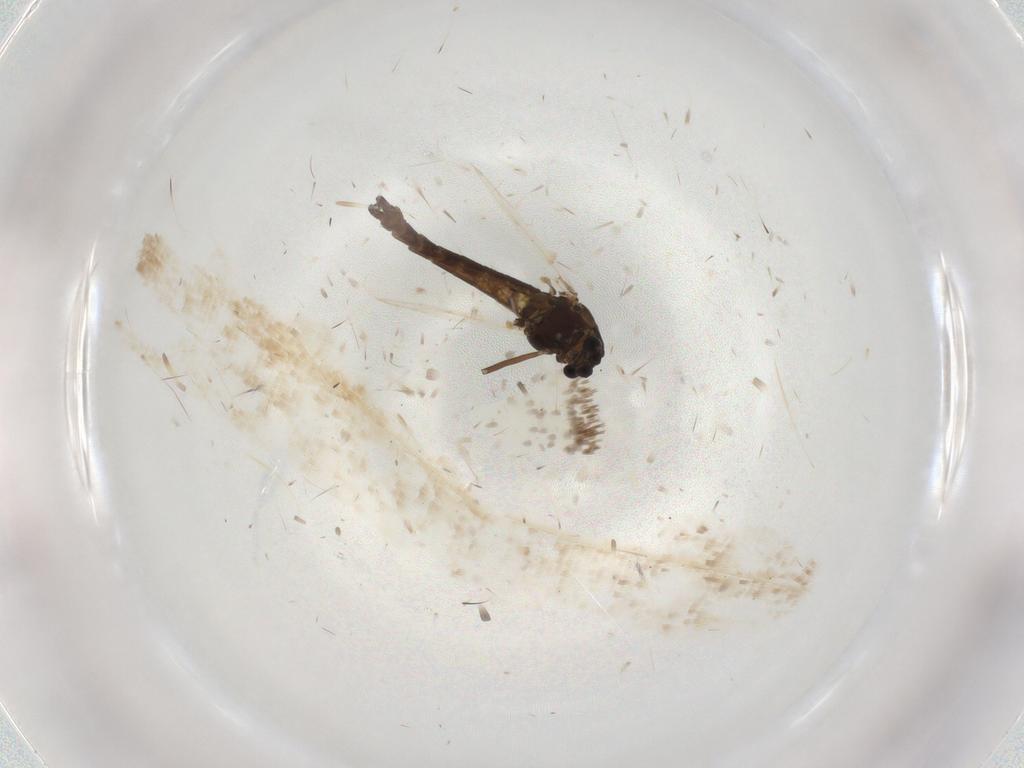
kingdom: Animalia
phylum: Arthropoda
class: Insecta
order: Diptera
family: Chironomidae
